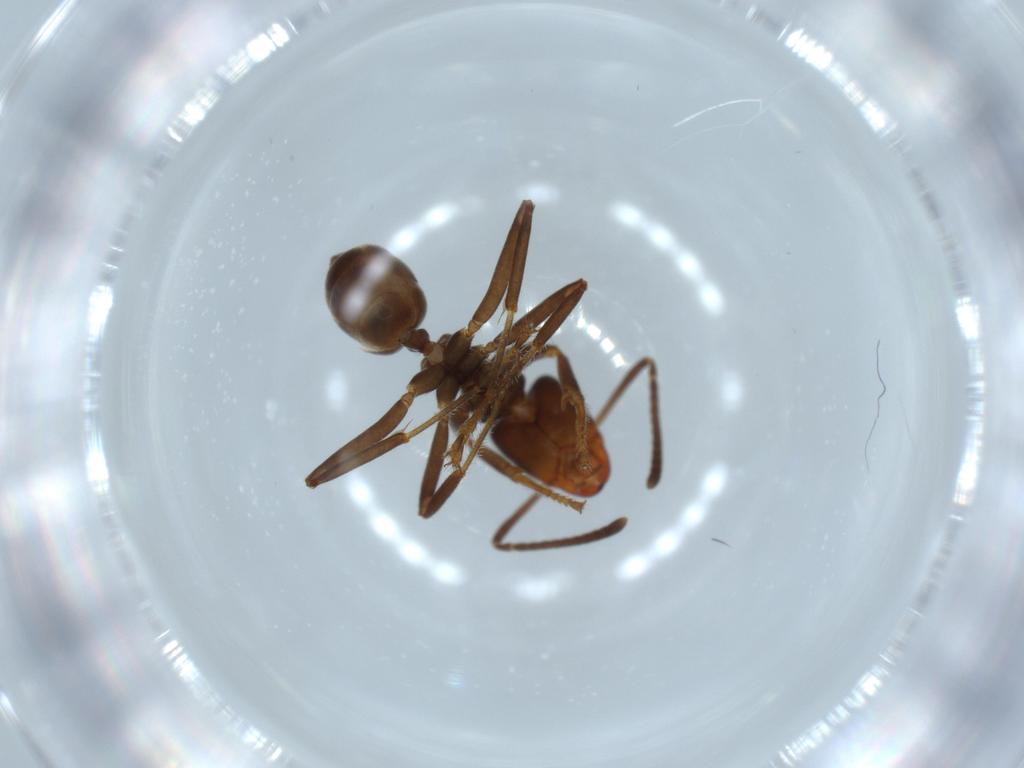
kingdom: Animalia
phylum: Arthropoda
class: Insecta
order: Hymenoptera
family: Formicidae
